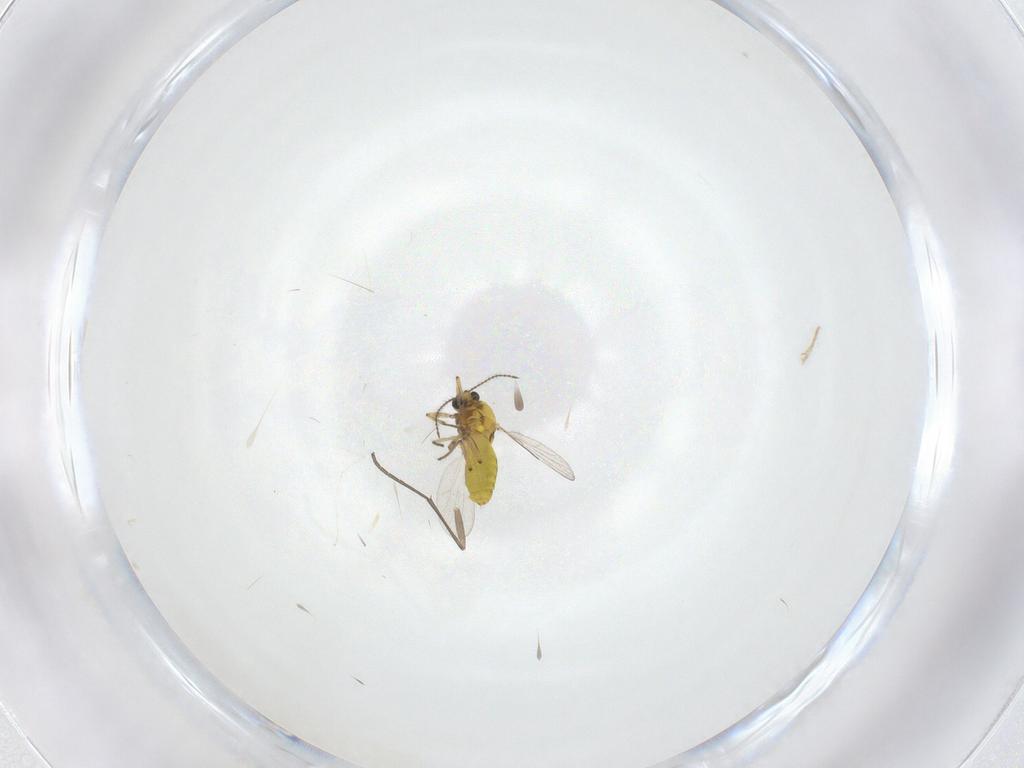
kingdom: Animalia
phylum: Arthropoda
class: Insecta
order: Diptera
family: Ceratopogonidae
